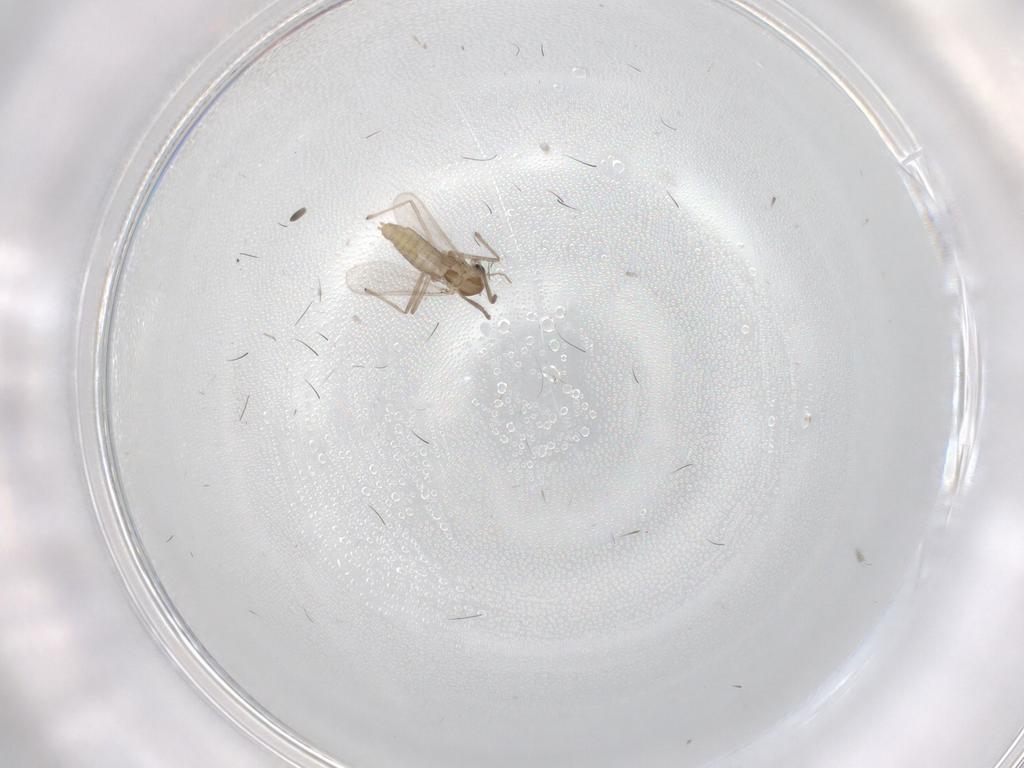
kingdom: Animalia
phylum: Arthropoda
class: Insecta
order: Diptera
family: Chironomidae
